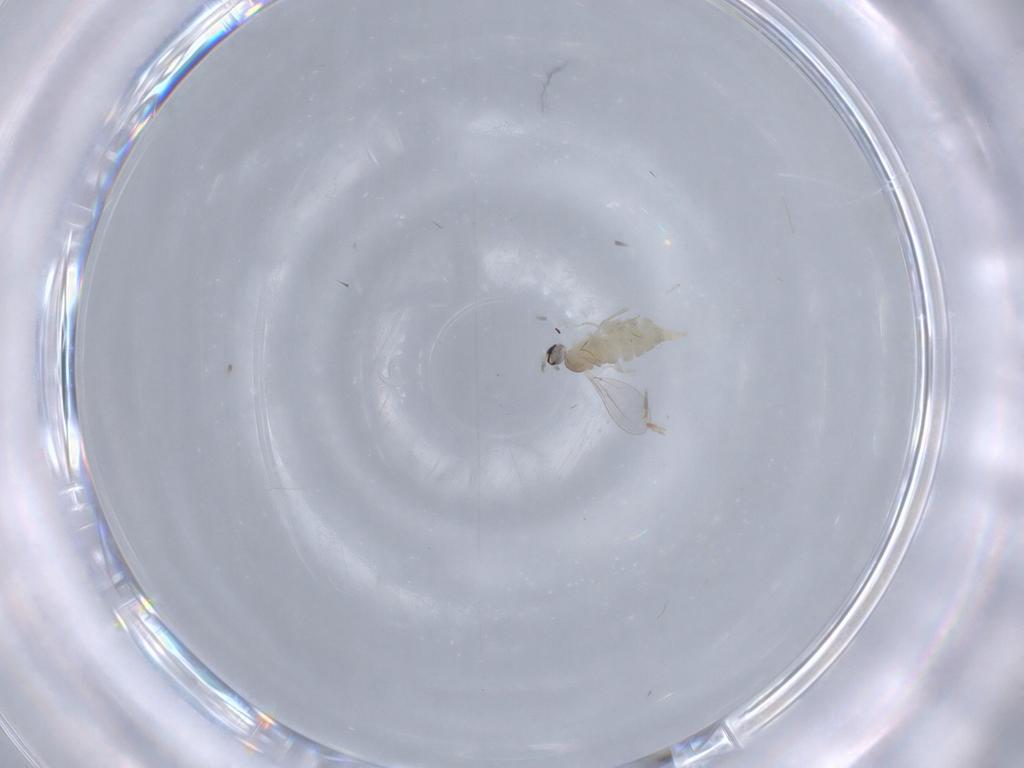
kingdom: Animalia
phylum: Arthropoda
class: Insecta
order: Diptera
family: Cecidomyiidae
